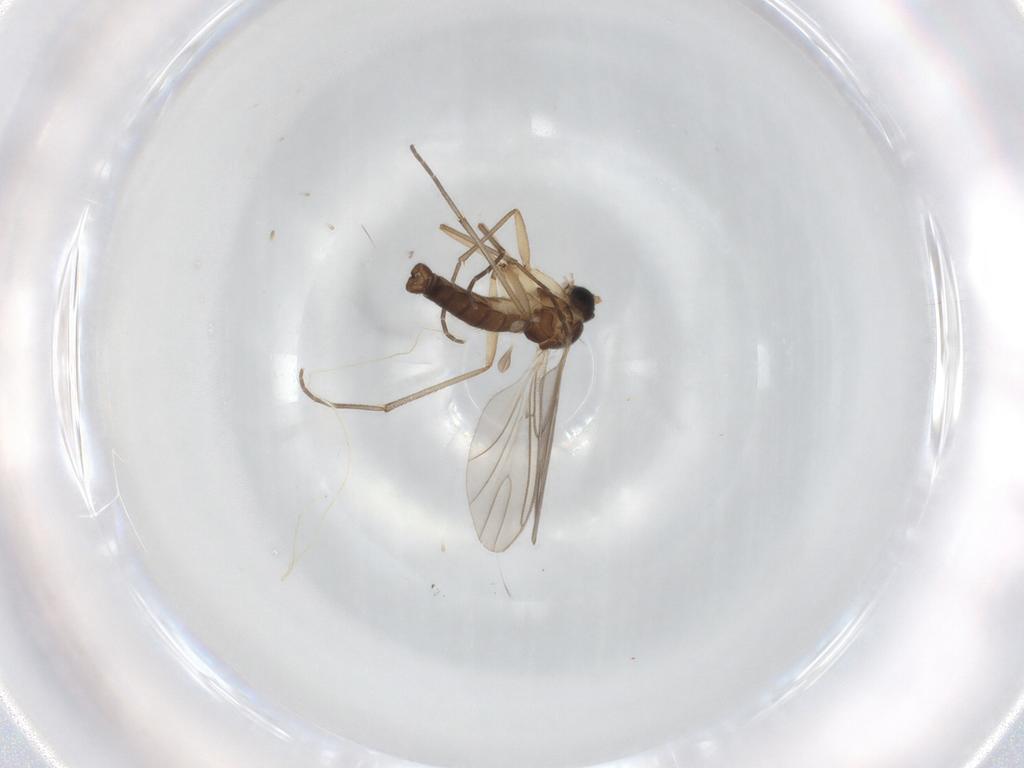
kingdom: Animalia
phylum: Arthropoda
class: Insecta
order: Diptera
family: Sciaridae
